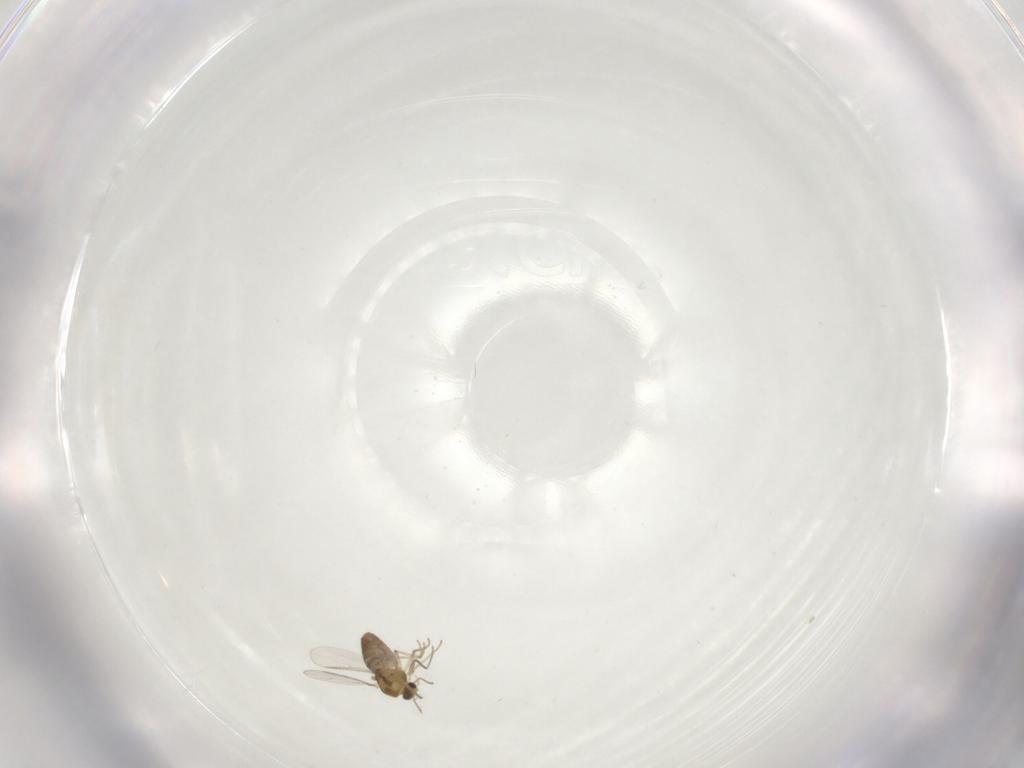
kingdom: Animalia
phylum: Arthropoda
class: Insecta
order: Diptera
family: Chironomidae
